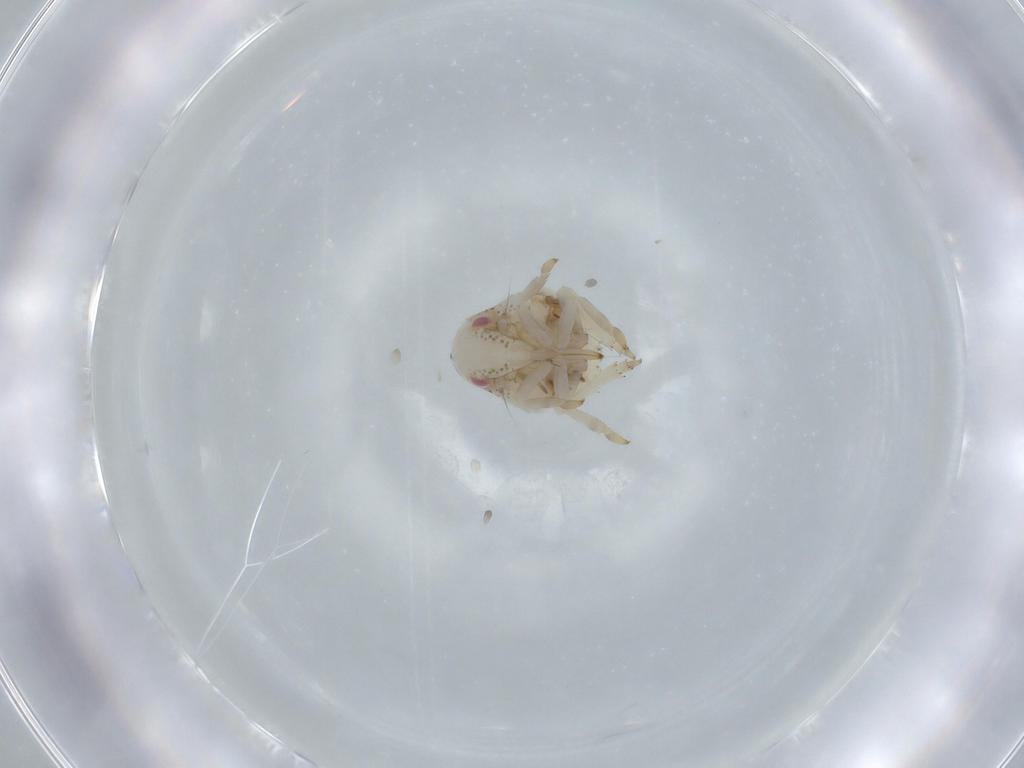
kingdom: Animalia
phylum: Arthropoda
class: Insecta
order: Hemiptera
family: Acanaloniidae
